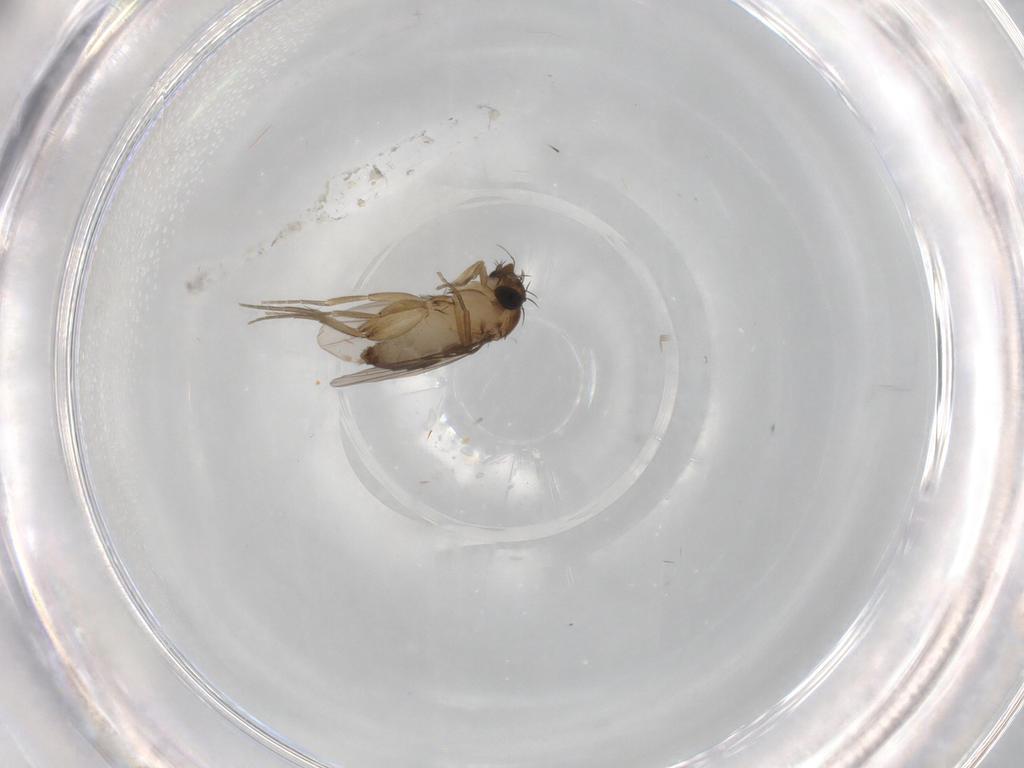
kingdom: Animalia
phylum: Arthropoda
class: Insecta
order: Diptera
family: Phoridae
